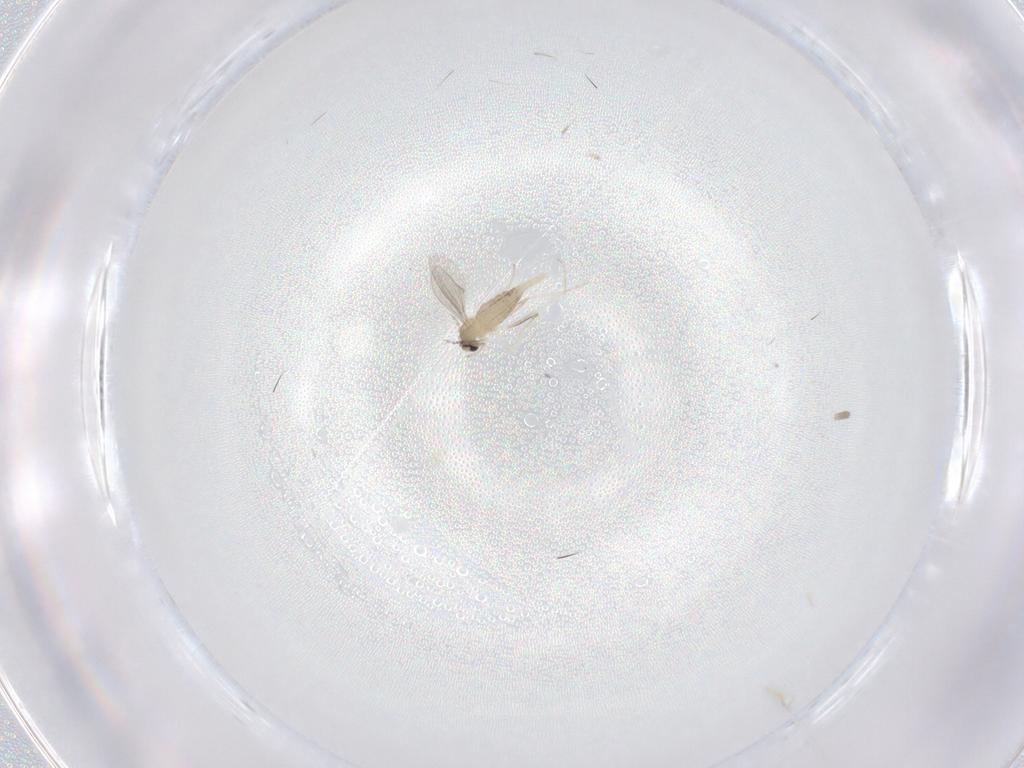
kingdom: Animalia
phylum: Arthropoda
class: Insecta
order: Diptera
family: Cecidomyiidae
